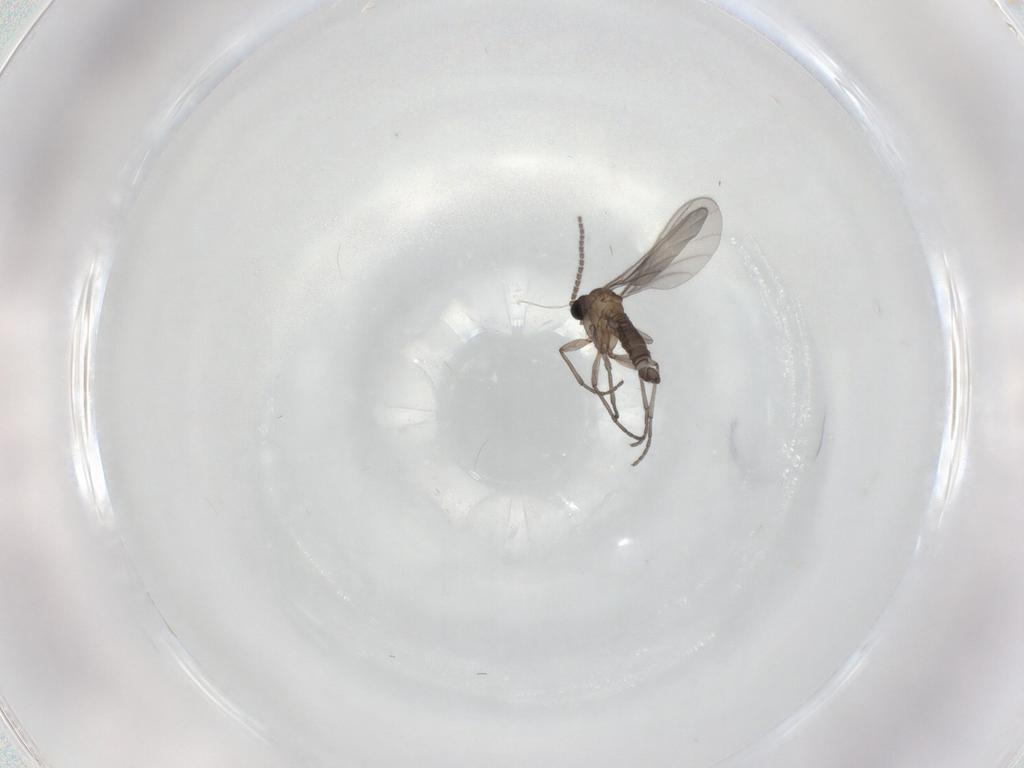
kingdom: Animalia
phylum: Arthropoda
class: Insecta
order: Diptera
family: Sciaridae
